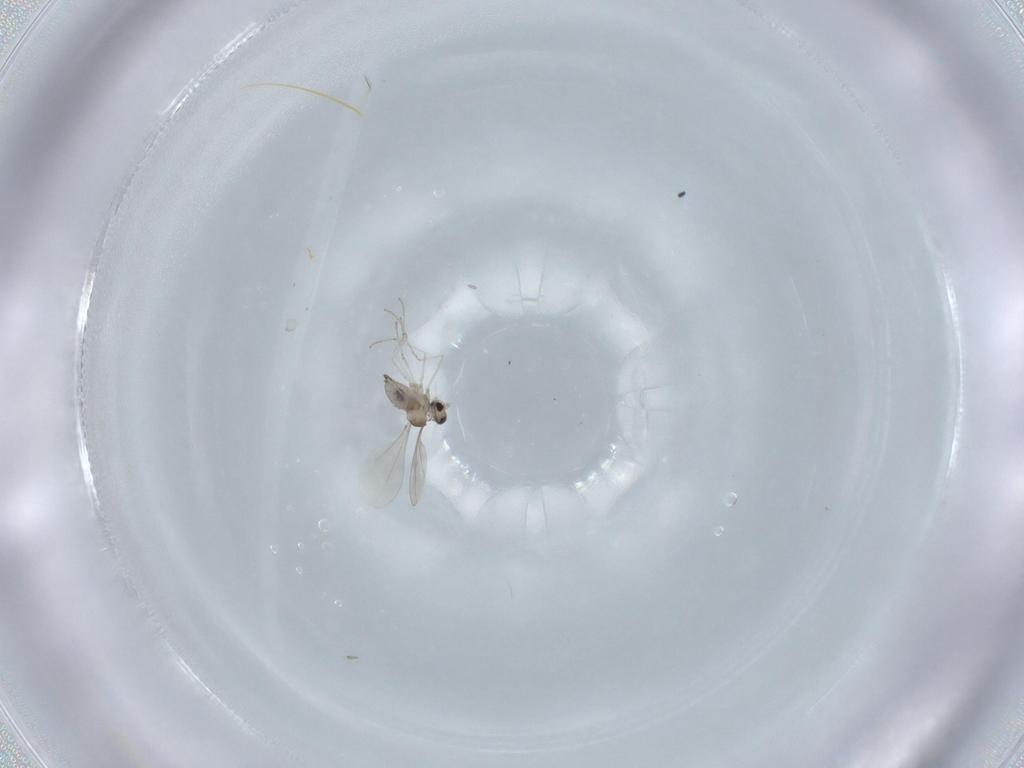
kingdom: Animalia
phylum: Arthropoda
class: Insecta
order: Diptera
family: Cecidomyiidae
